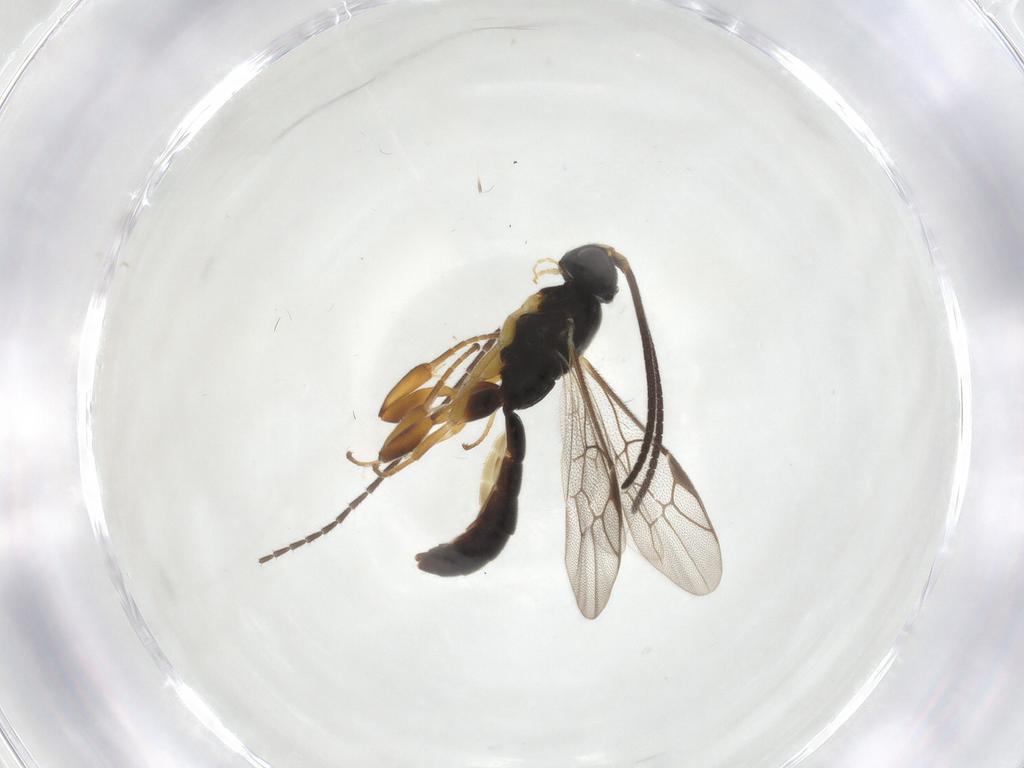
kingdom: Animalia
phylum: Arthropoda
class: Insecta
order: Hymenoptera
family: Ichneumonidae
